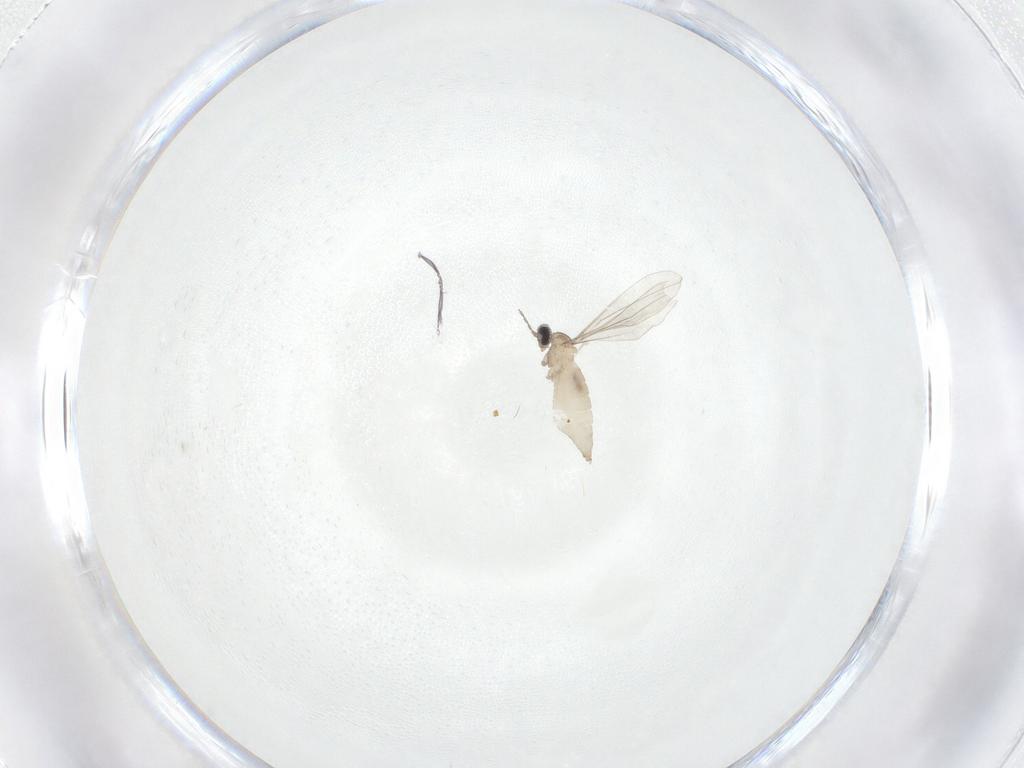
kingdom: Animalia
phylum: Arthropoda
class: Insecta
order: Diptera
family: Cecidomyiidae
